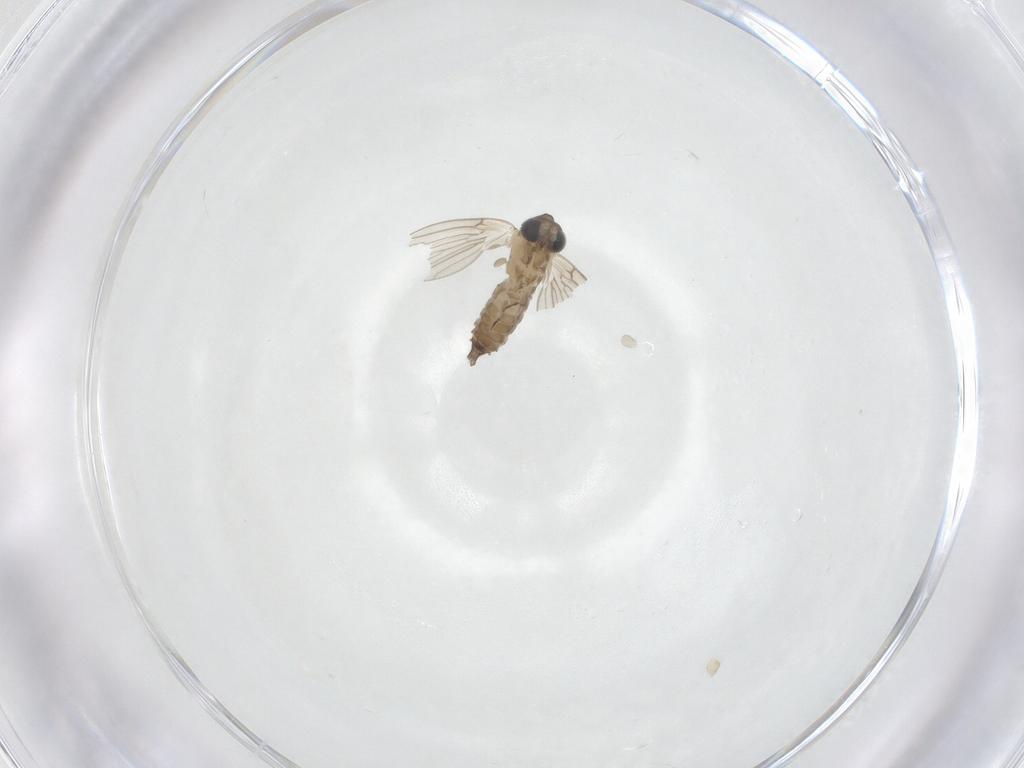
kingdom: Animalia
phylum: Arthropoda
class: Insecta
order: Diptera
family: Psychodidae
